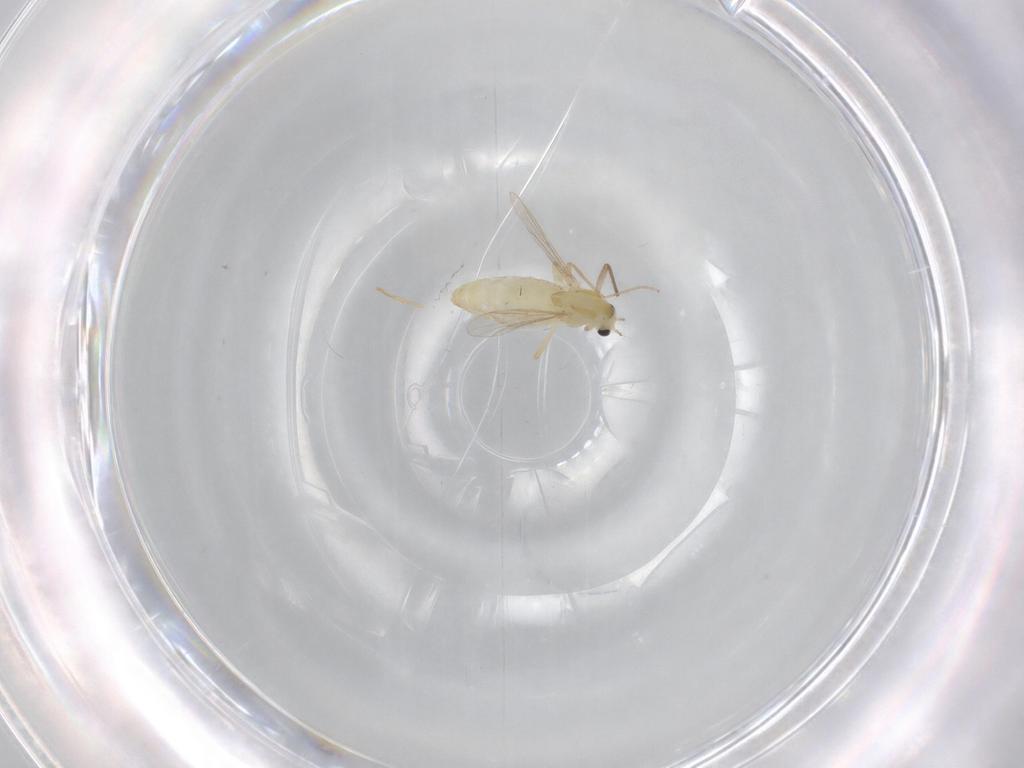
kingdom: Animalia
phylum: Arthropoda
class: Insecta
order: Diptera
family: Chironomidae
